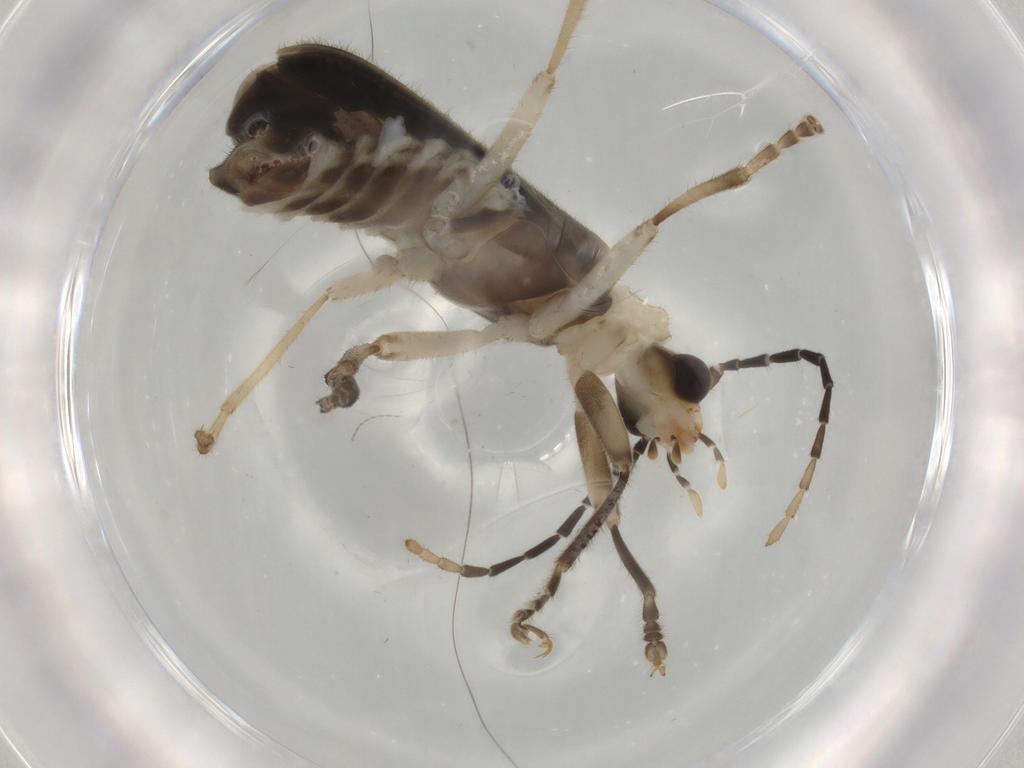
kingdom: Animalia
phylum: Arthropoda
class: Insecta
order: Coleoptera
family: Cantharidae
